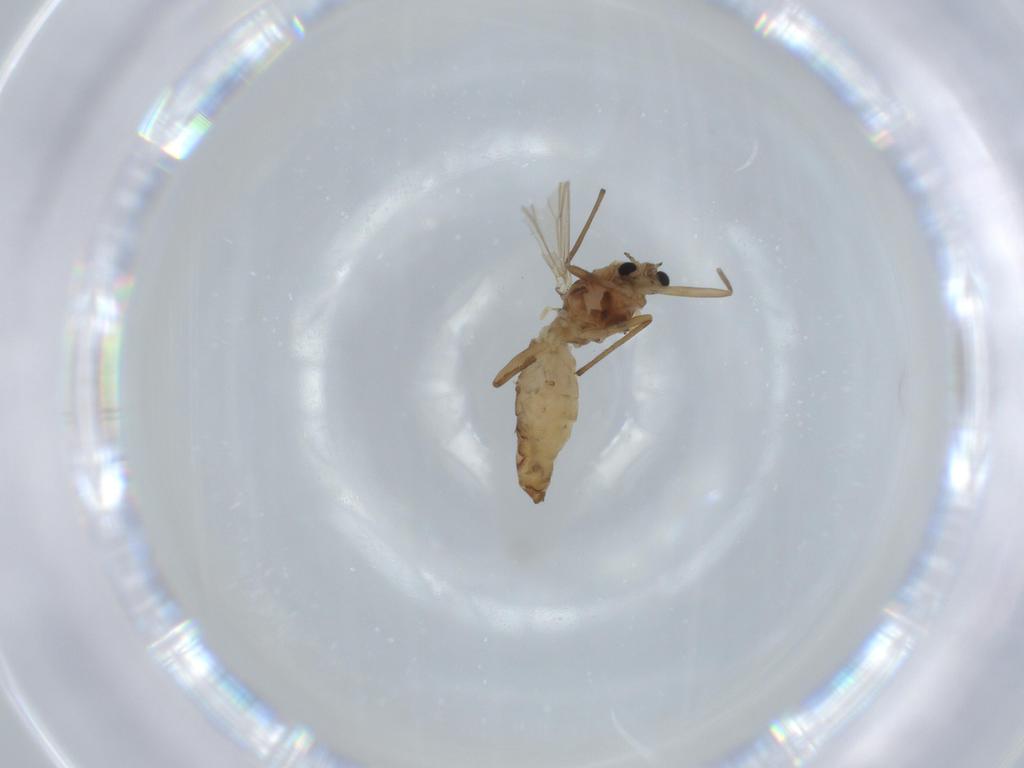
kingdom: Animalia
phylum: Arthropoda
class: Insecta
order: Diptera
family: Chironomidae
